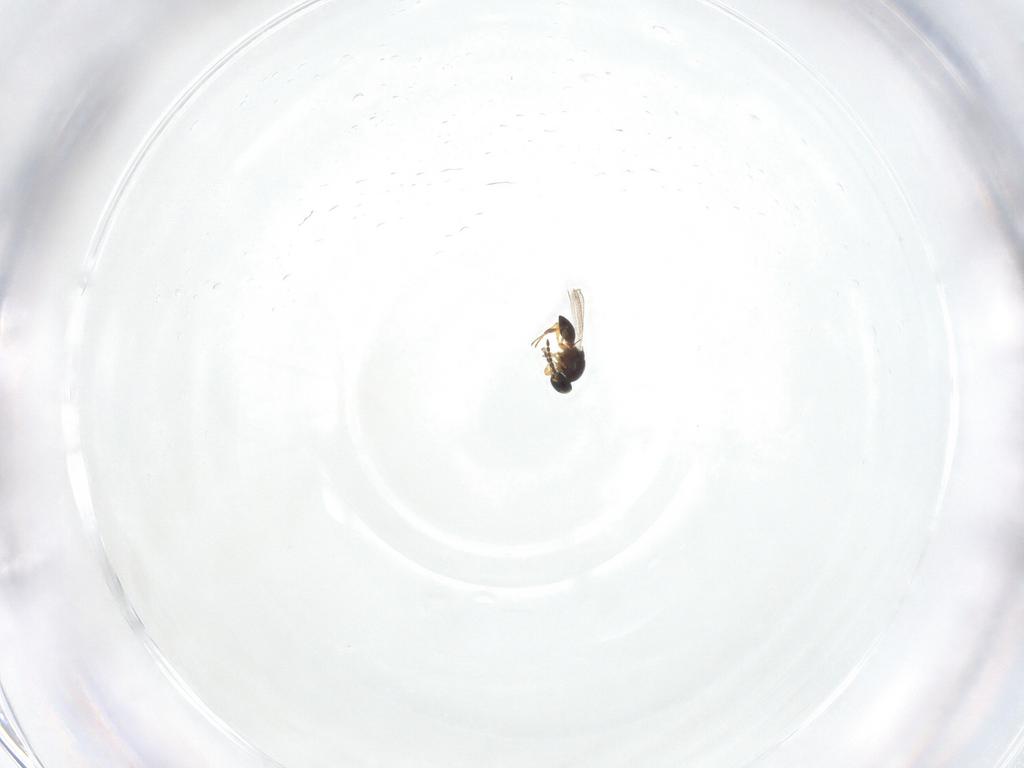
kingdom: Animalia
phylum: Arthropoda
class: Insecta
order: Hymenoptera
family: Platygastridae
